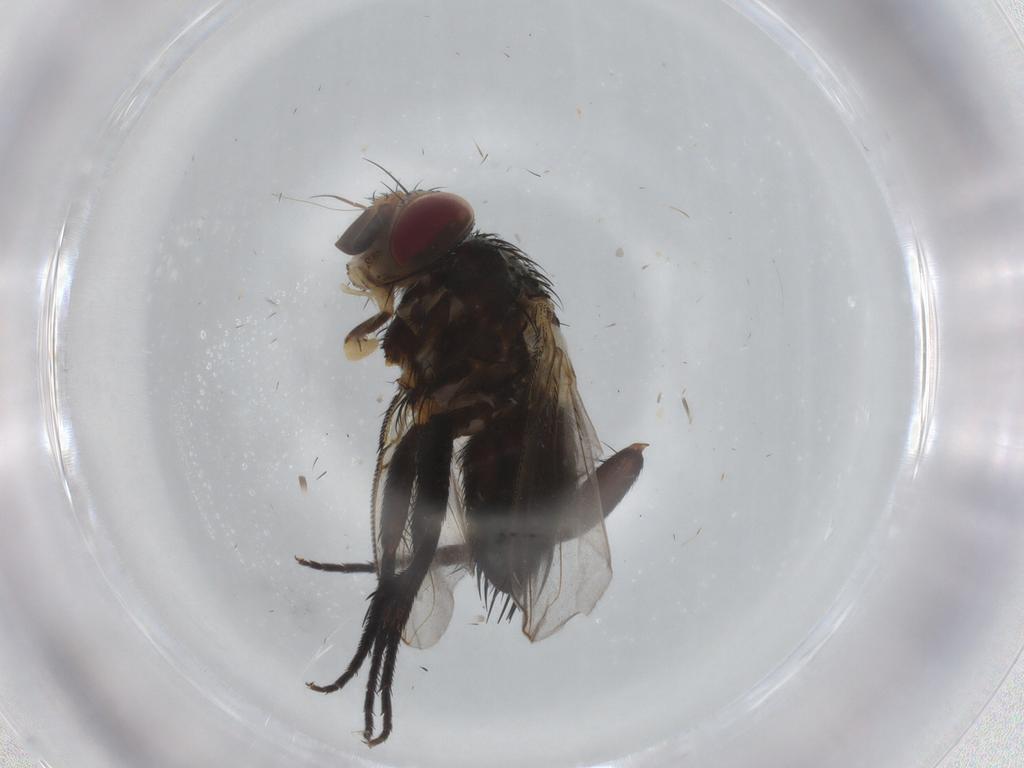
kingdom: Animalia
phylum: Arthropoda
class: Insecta
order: Diptera
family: Tachinidae
